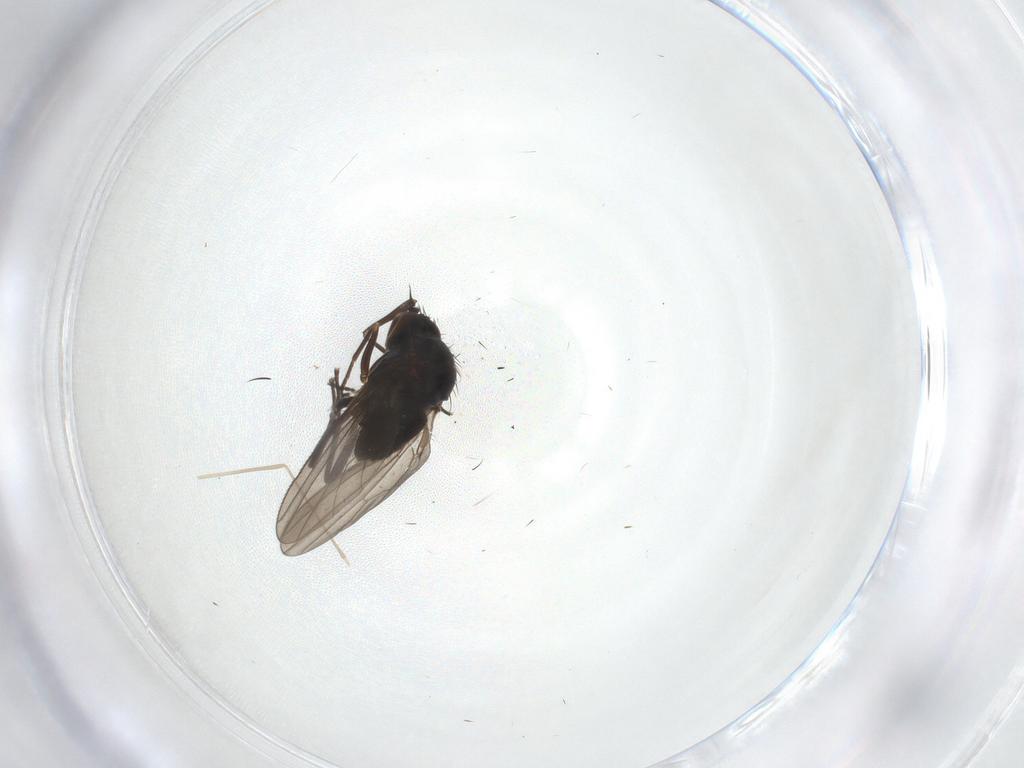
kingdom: Animalia
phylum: Arthropoda
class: Insecta
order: Diptera
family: Dolichopodidae
